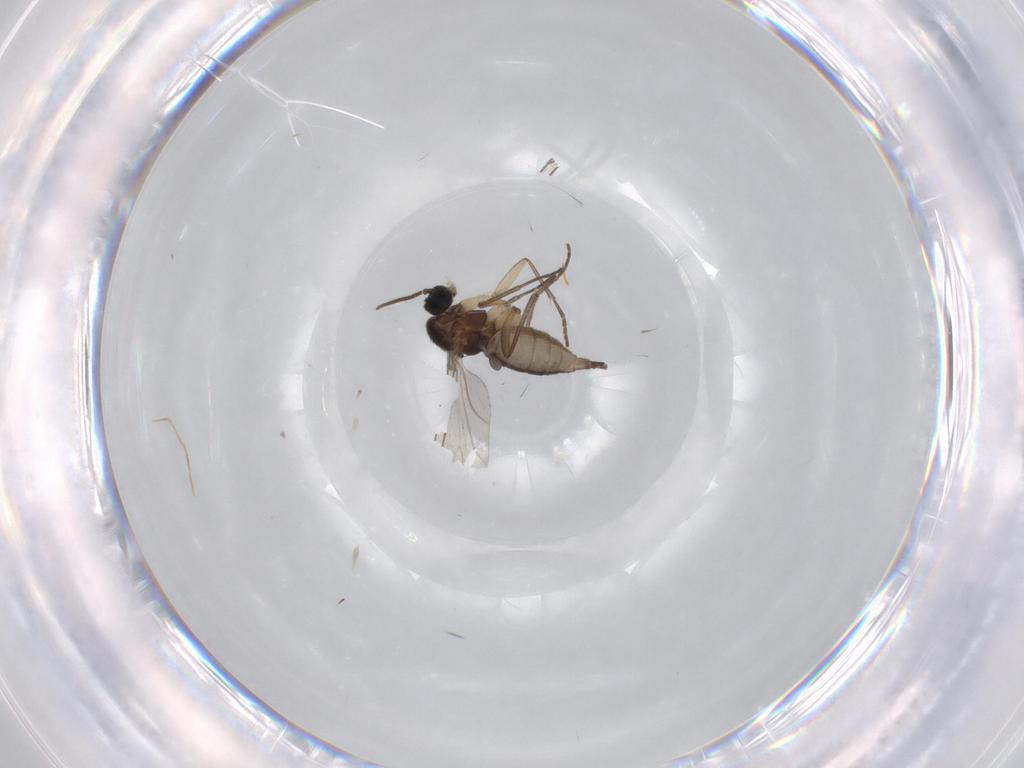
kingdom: Animalia
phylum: Arthropoda
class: Insecta
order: Diptera
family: Sciaridae
